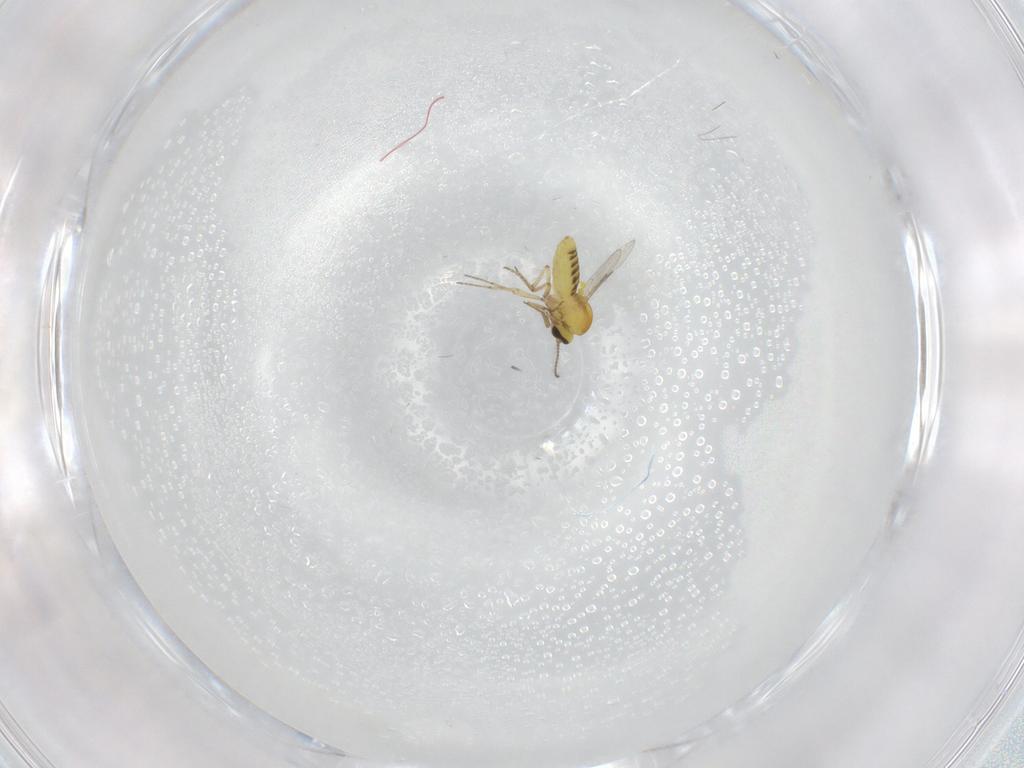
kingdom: Animalia
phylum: Arthropoda
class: Insecta
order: Diptera
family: Ceratopogonidae
